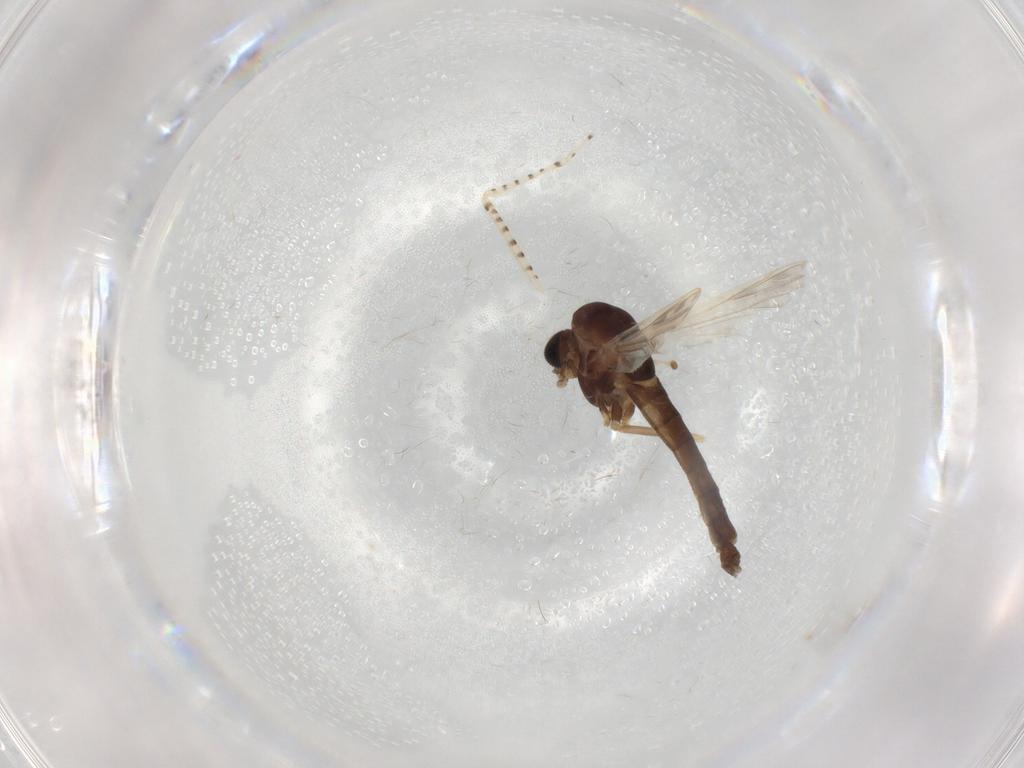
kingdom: Animalia
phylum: Arthropoda
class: Insecta
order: Diptera
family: Chironomidae
